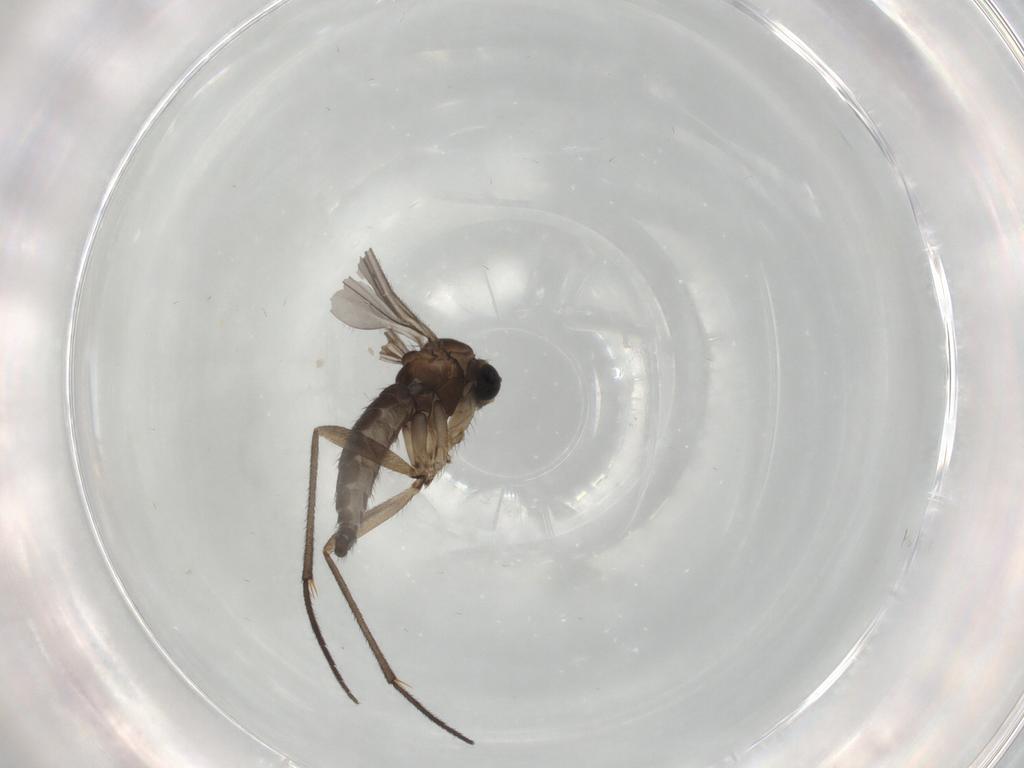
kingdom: Animalia
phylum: Arthropoda
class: Insecta
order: Diptera
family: Sciaridae
